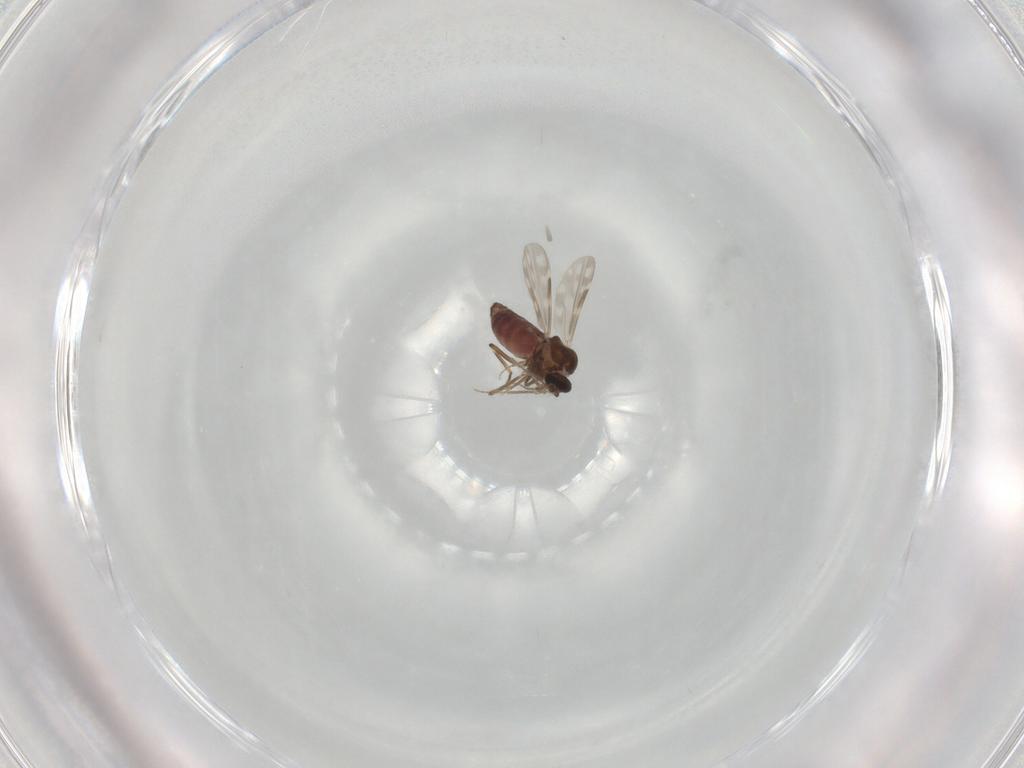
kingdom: Animalia
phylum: Arthropoda
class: Insecta
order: Diptera
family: Ceratopogonidae
